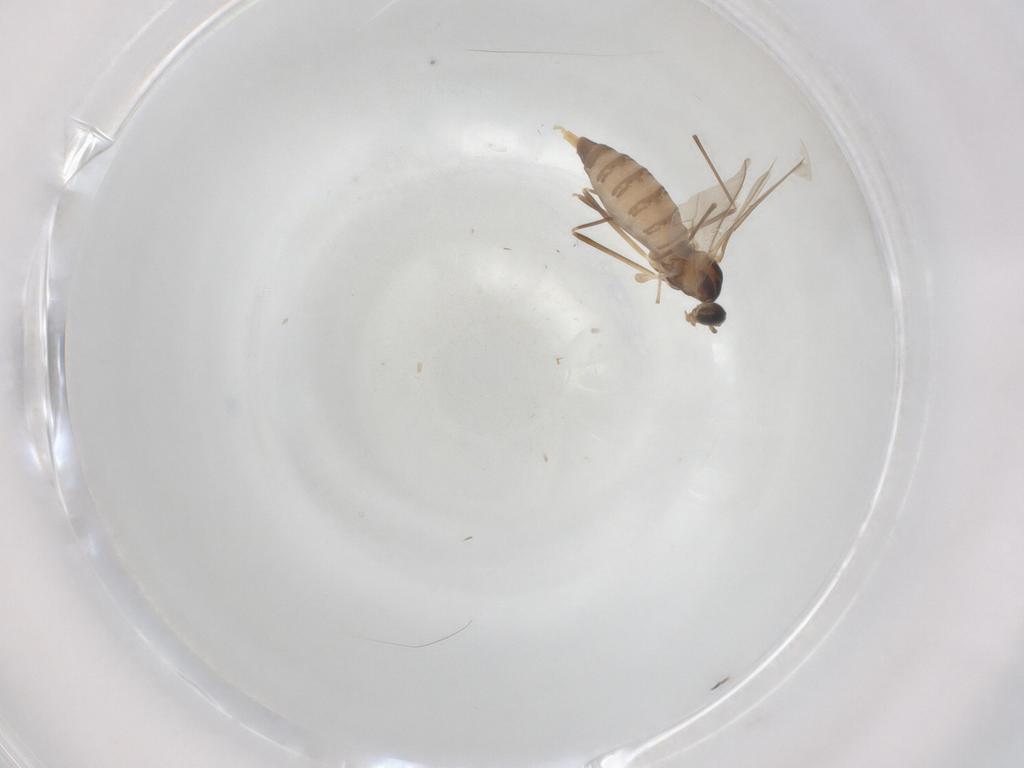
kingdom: Animalia
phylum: Arthropoda
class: Insecta
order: Diptera
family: Cecidomyiidae
